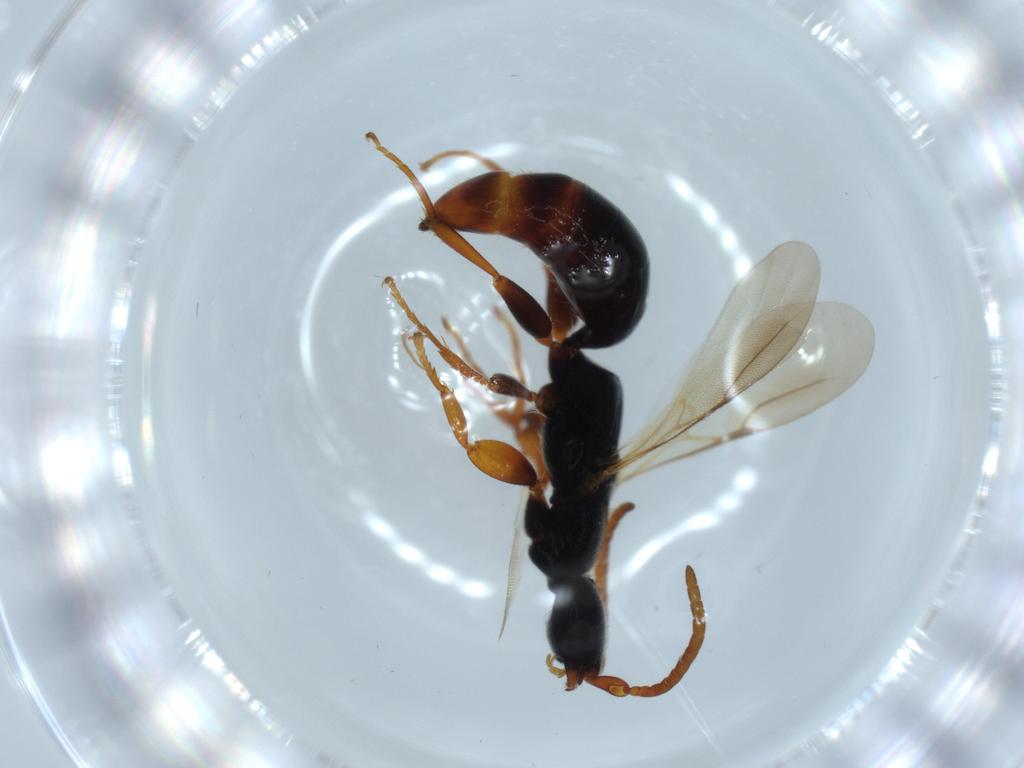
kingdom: Animalia
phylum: Arthropoda
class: Insecta
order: Hymenoptera
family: Bethylidae
